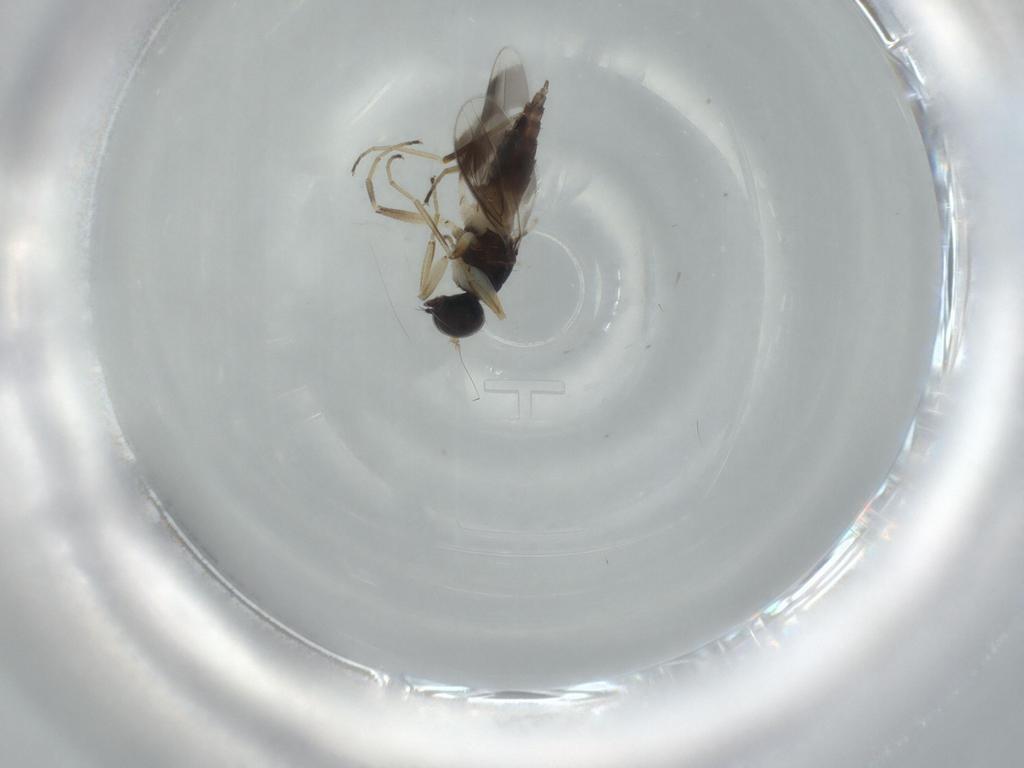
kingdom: Animalia
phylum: Arthropoda
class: Insecta
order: Diptera
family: Hybotidae
